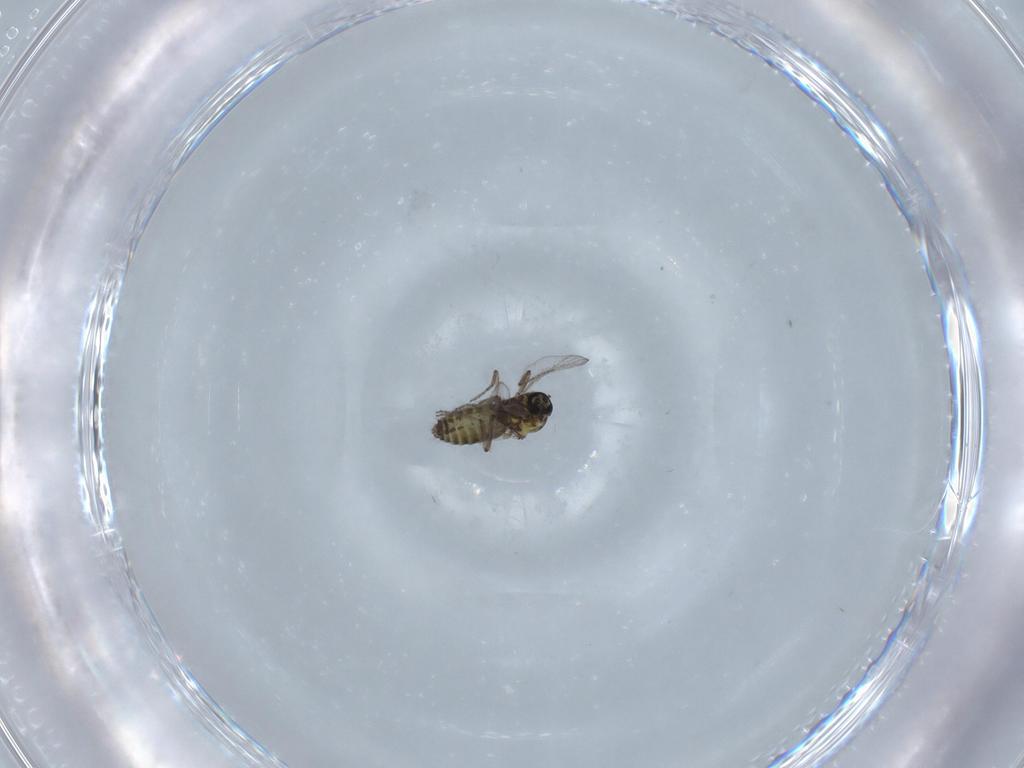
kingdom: Animalia
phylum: Arthropoda
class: Insecta
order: Diptera
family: Ceratopogonidae
